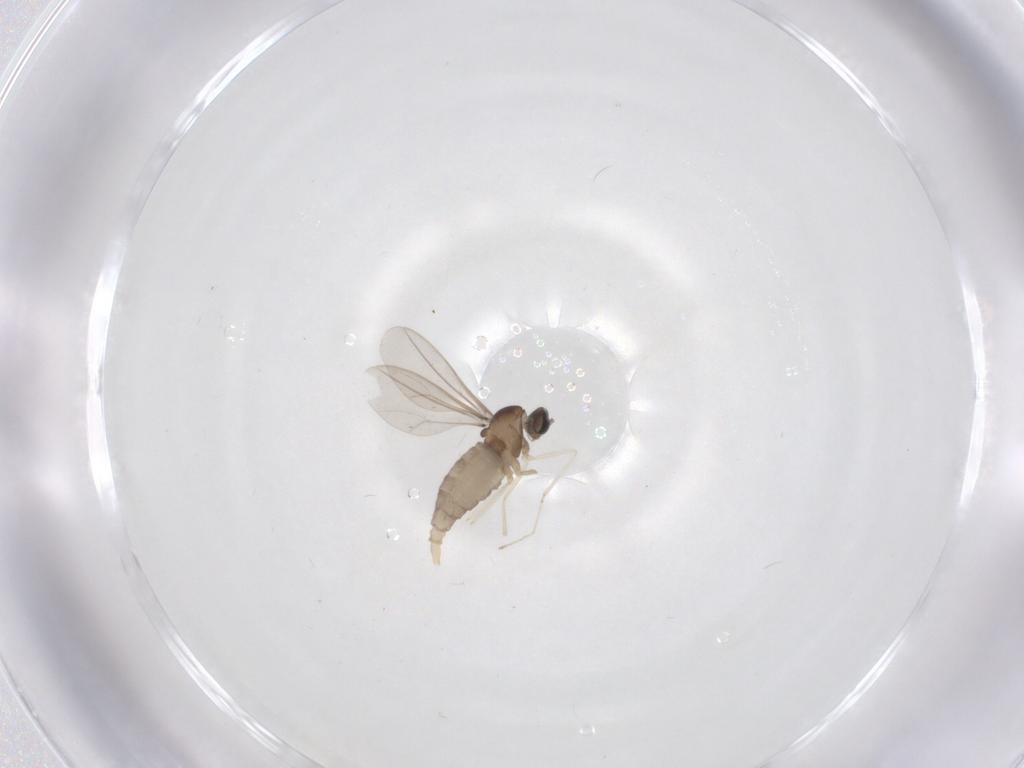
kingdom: Animalia
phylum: Arthropoda
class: Insecta
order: Diptera
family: Cecidomyiidae
